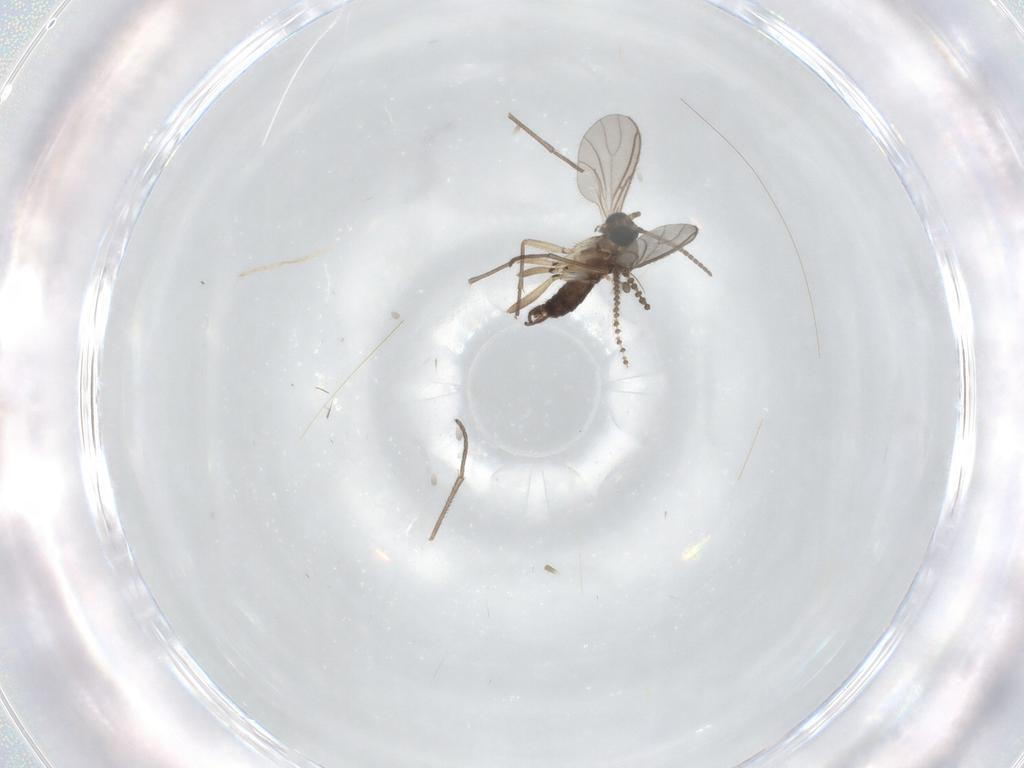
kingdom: Animalia
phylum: Arthropoda
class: Insecta
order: Diptera
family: Sciaridae
